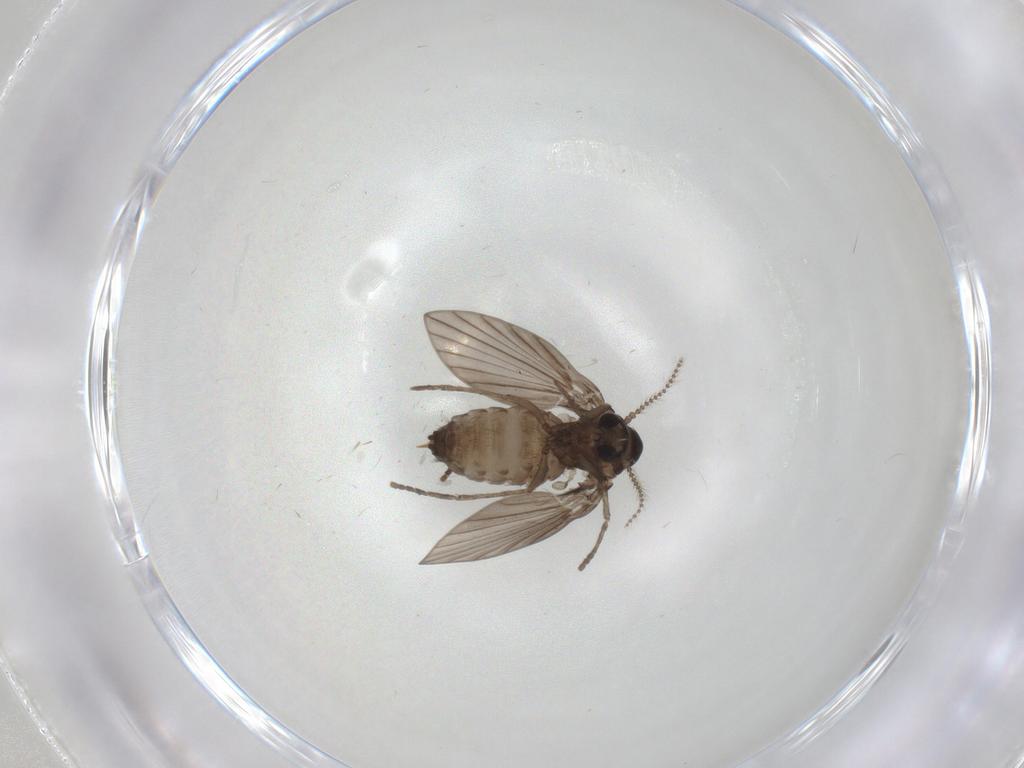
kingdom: Animalia
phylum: Arthropoda
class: Insecta
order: Diptera
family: Psychodidae
